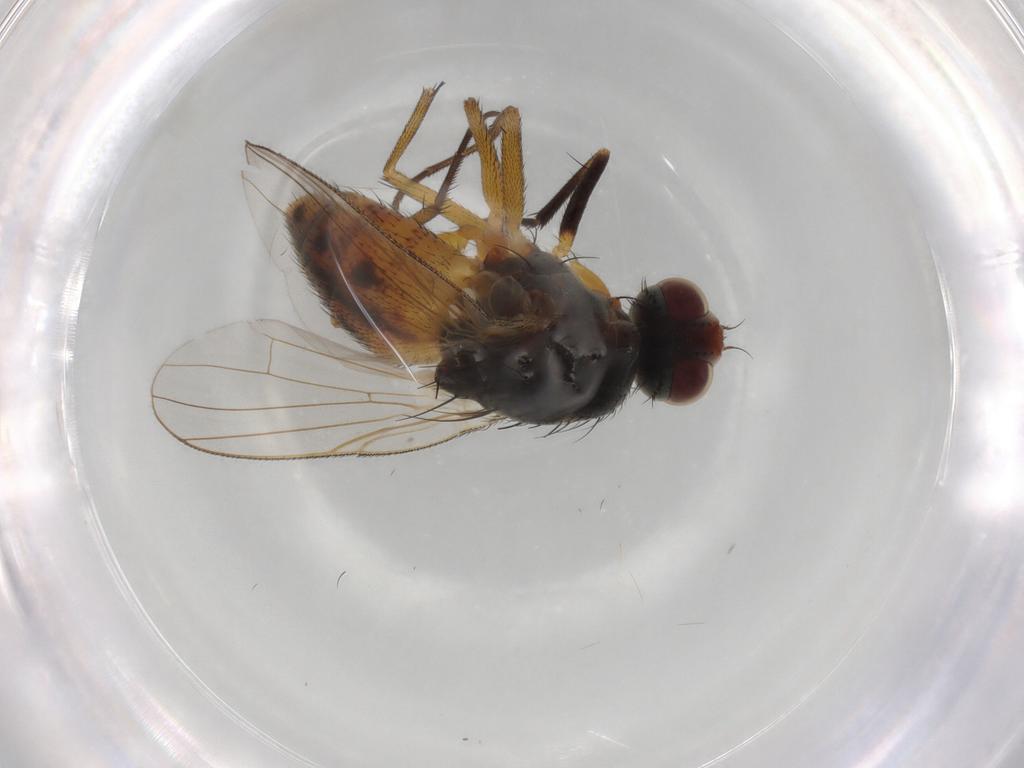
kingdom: Animalia
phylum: Arthropoda
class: Insecta
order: Diptera
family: Muscidae
